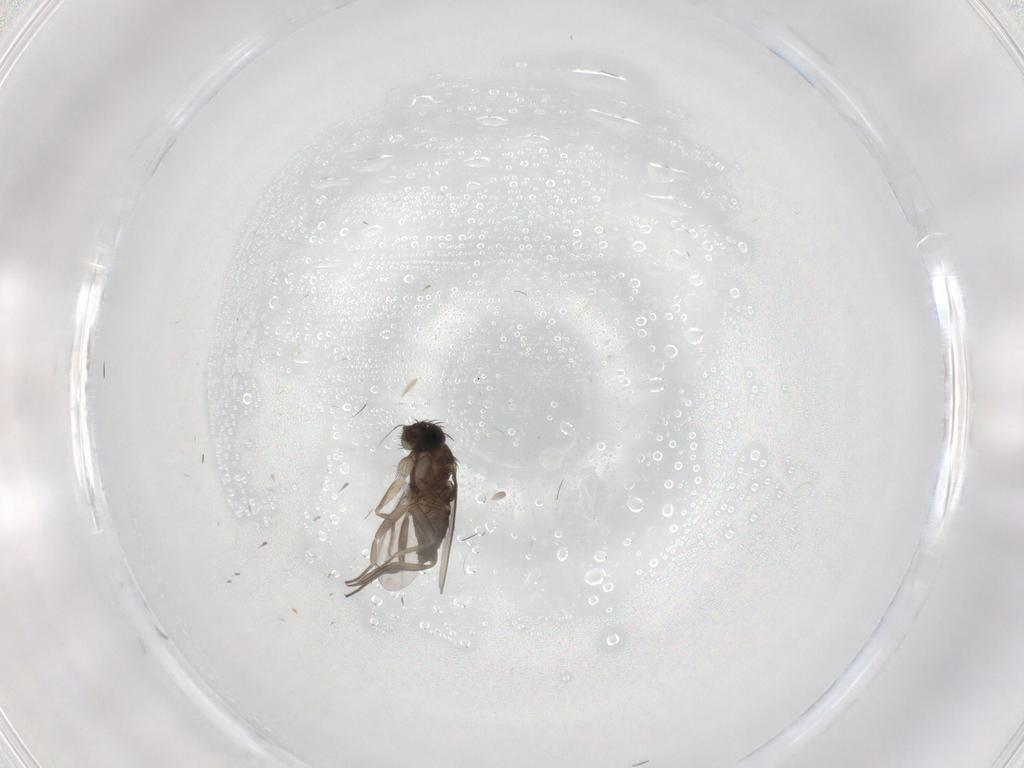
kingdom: Animalia
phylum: Arthropoda
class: Insecta
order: Diptera
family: Phoridae
